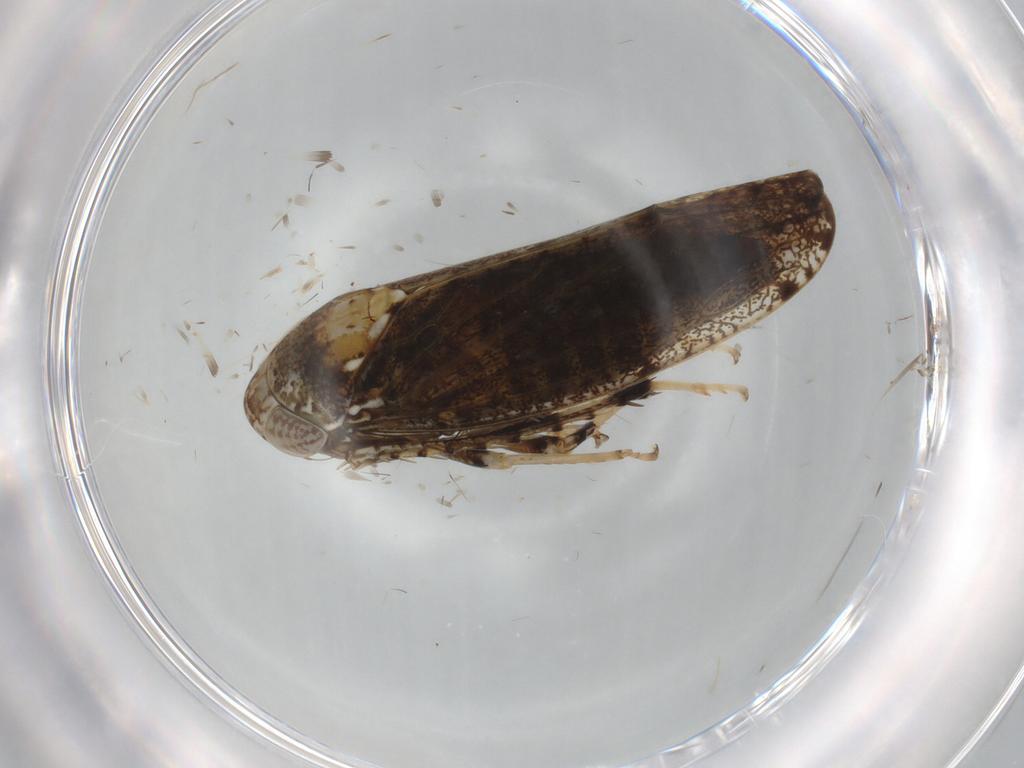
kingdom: Animalia
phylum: Arthropoda
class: Insecta
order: Hemiptera
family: Cicadellidae
